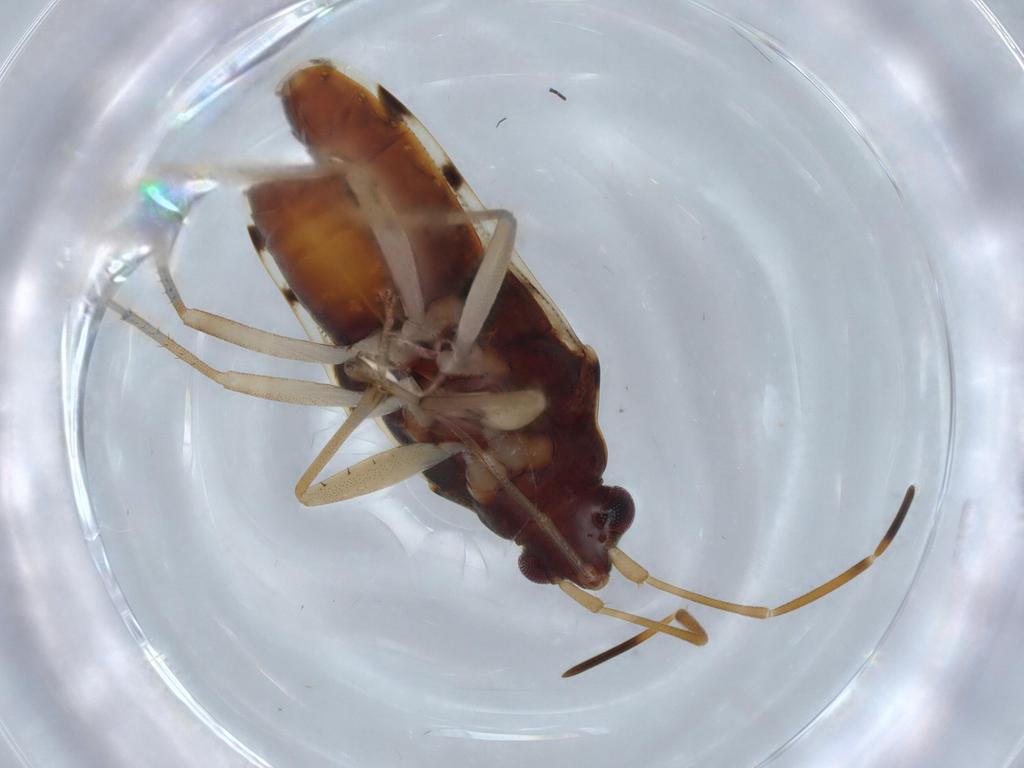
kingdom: Animalia
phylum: Arthropoda
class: Insecta
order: Hemiptera
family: Rhyparochromidae
